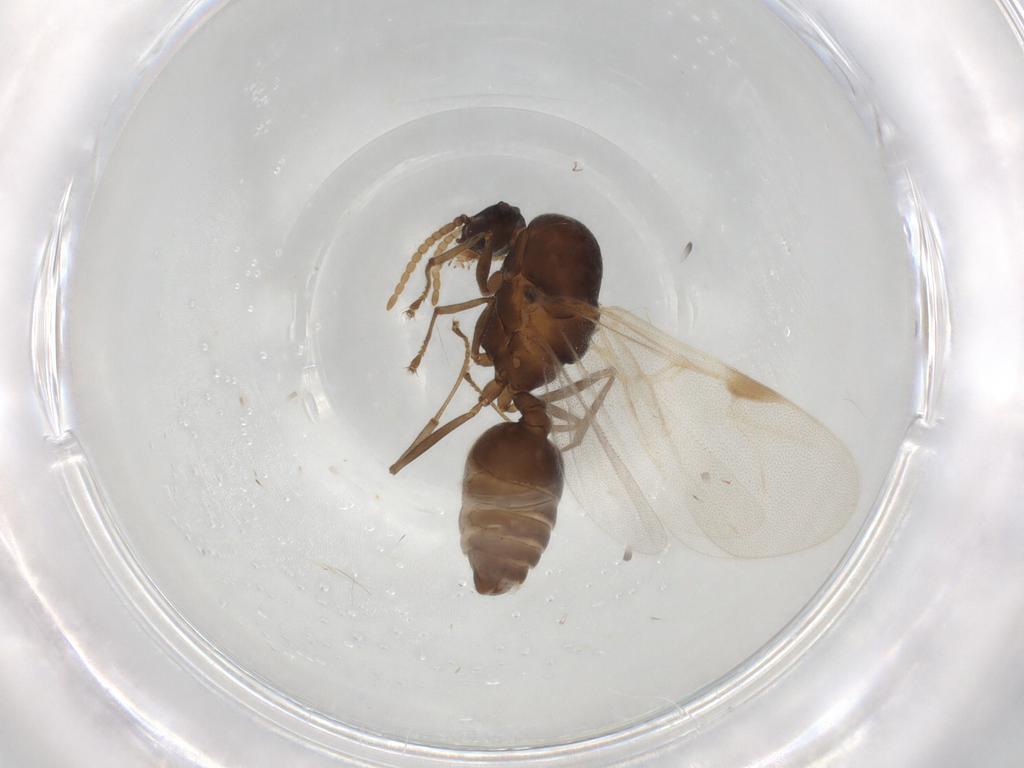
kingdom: Animalia
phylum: Arthropoda
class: Insecta
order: Hymenoptera
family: Formicidae
